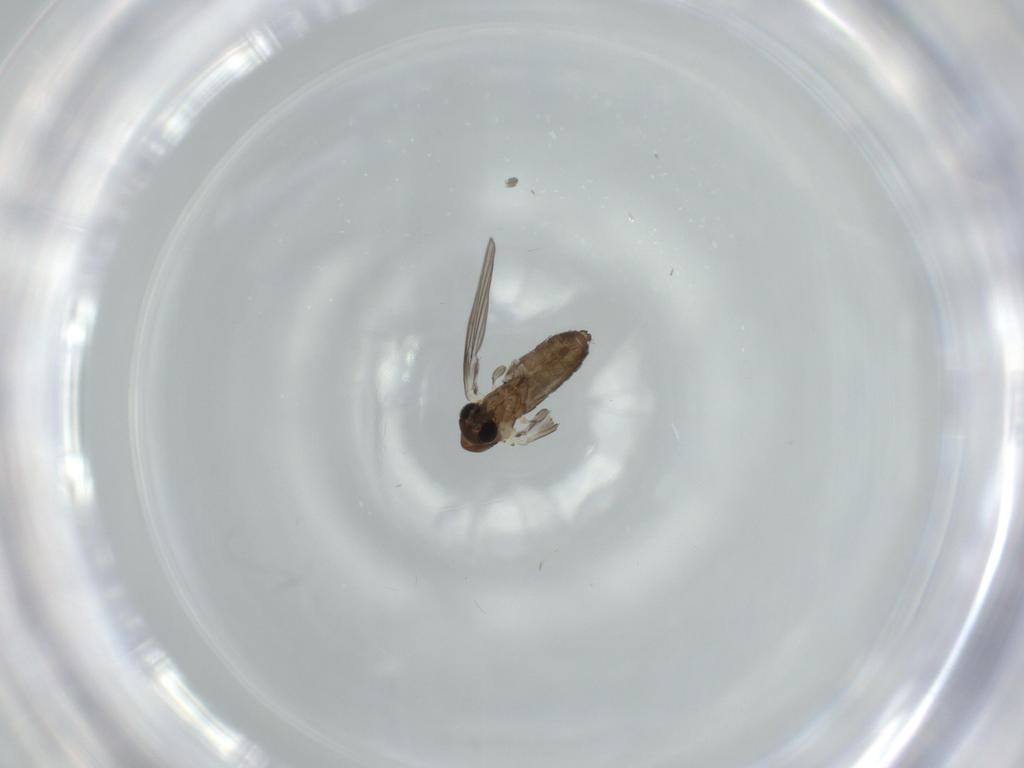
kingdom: Animalia
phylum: Arthropoda
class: Insecta
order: Diptera
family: Psychodidae
